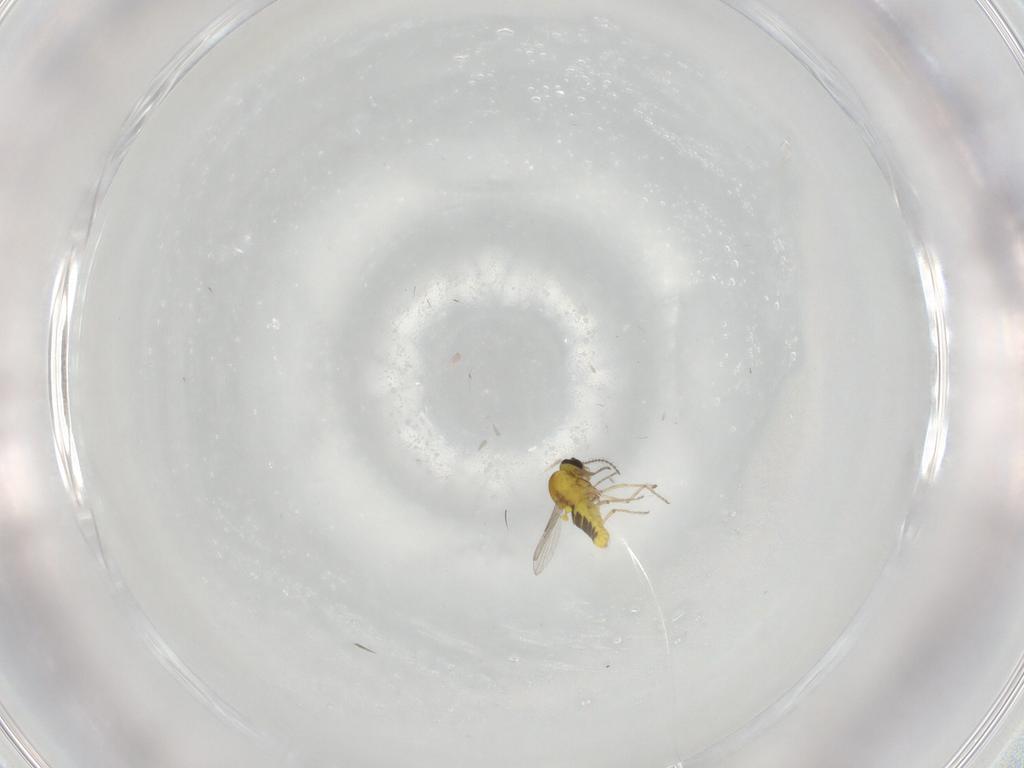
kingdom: Animalia
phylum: Arthropoda
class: Insecta
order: Diptera
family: Ceratopogonidae
